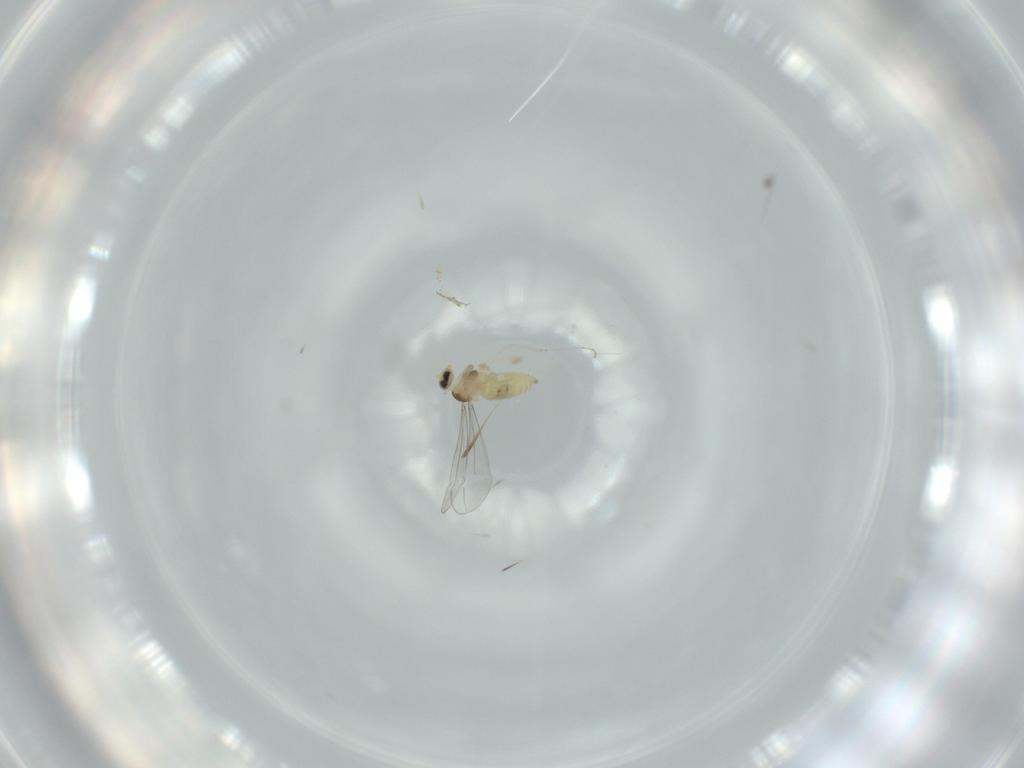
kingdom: Animalia
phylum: Arthropoda
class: Insecta
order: Diptera
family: Cecidomyiidae
